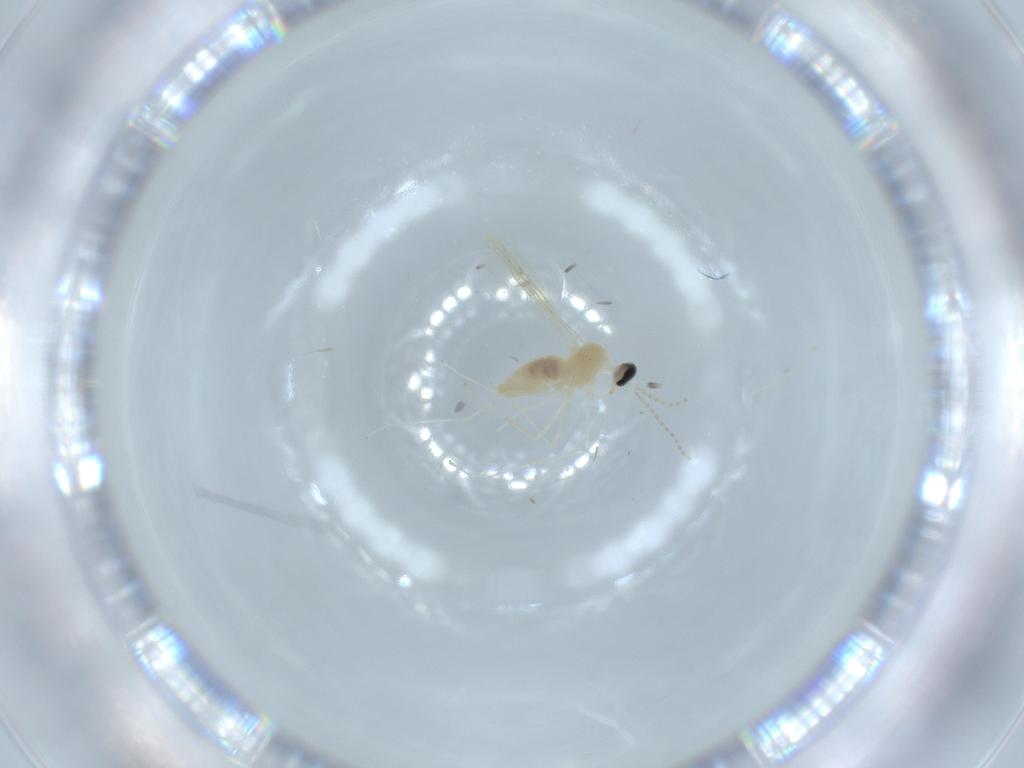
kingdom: Animalia
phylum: Arthropoda
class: Insecta
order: Diptera
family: Cecidomyiidae
